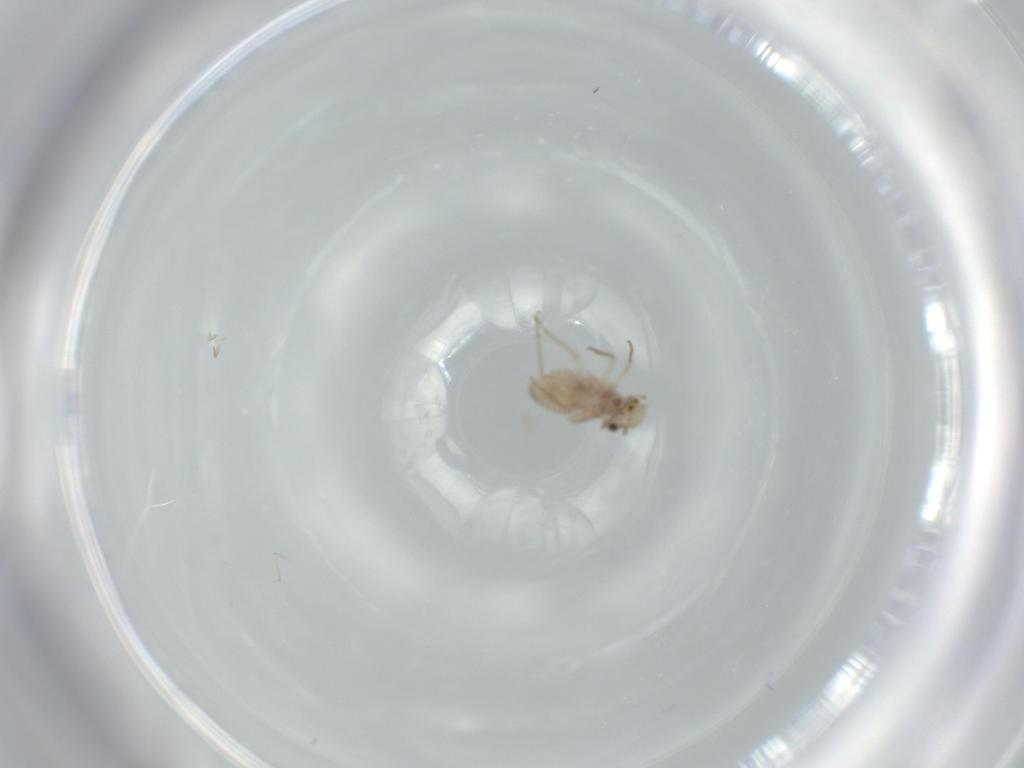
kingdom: Animalia
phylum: Arthropoda
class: Insecta
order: Psocodea
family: Lachesillidae
